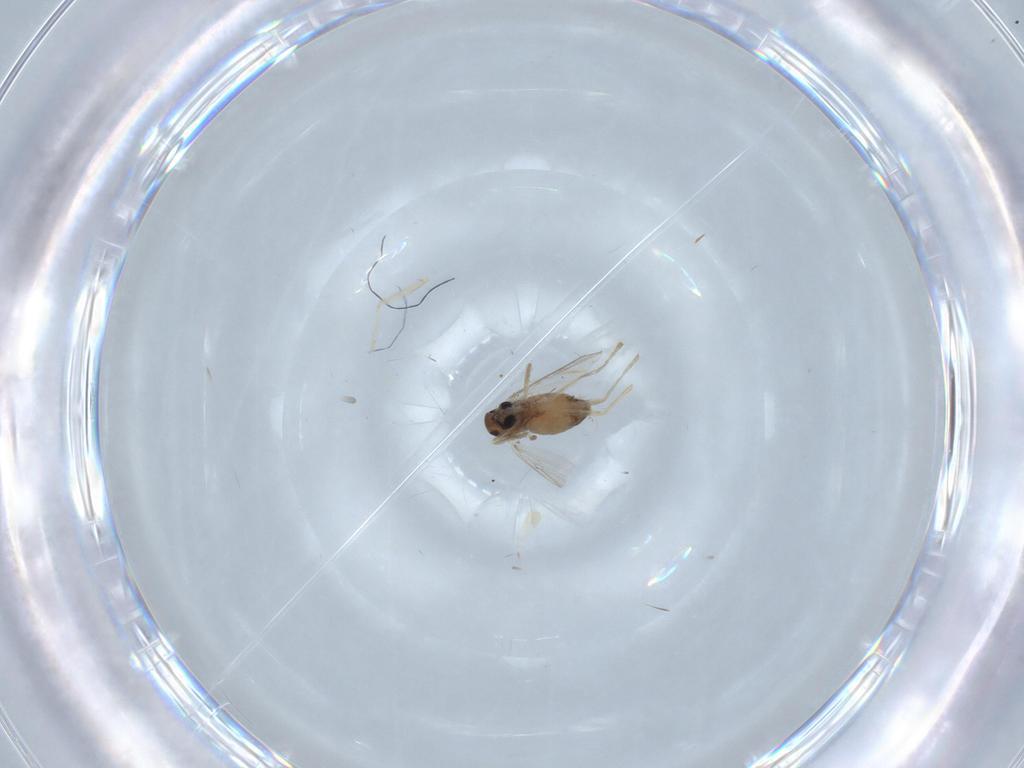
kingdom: Animalia
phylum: Arthropoda
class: Insecta
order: Diptera
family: Chironomidae
